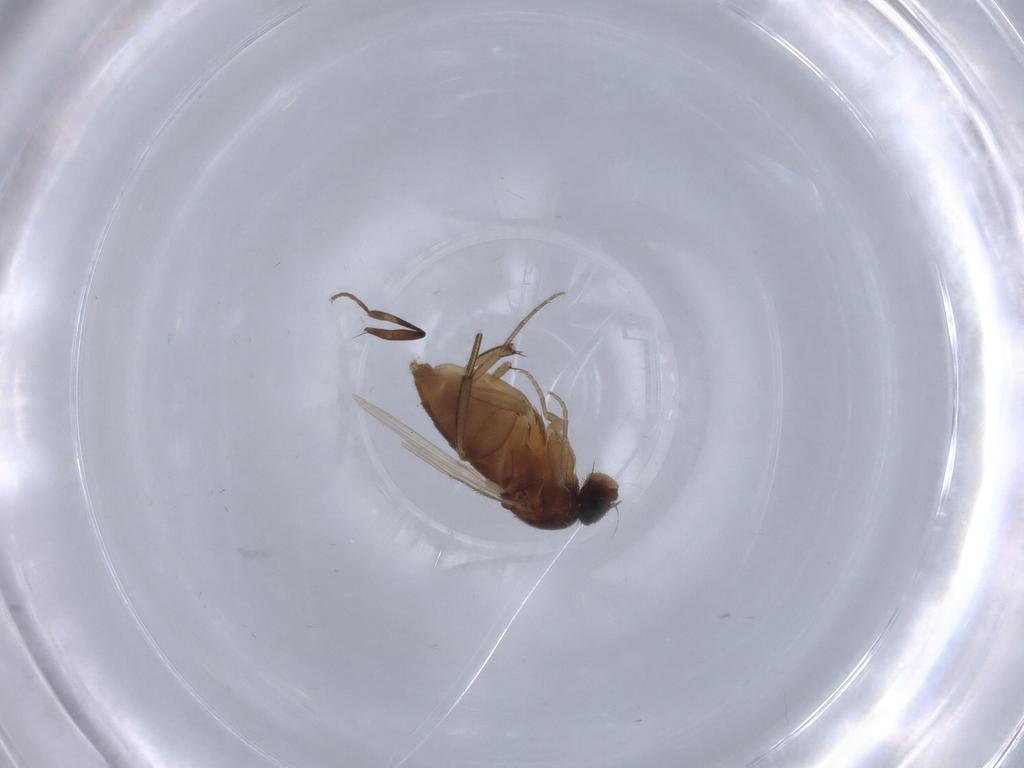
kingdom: Animalia
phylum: Arthropoda
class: Insecta
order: Diptera
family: Phoridae
